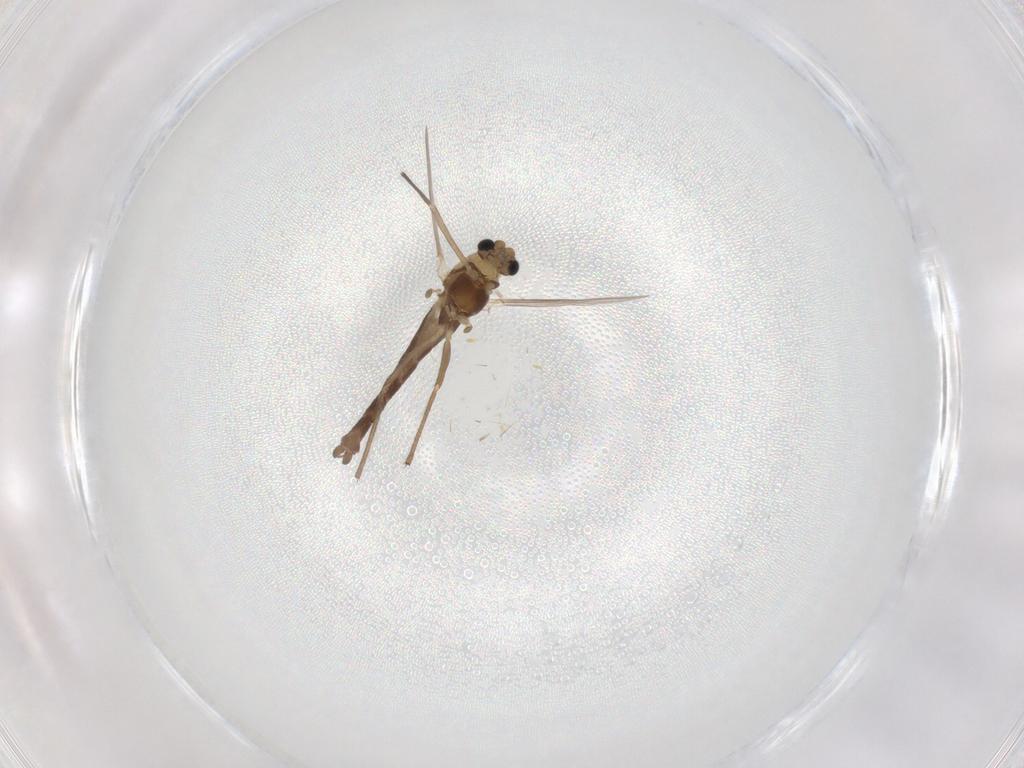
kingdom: Animalia
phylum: Arthropoda
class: Insecta
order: Diptera
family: Chironomidae
